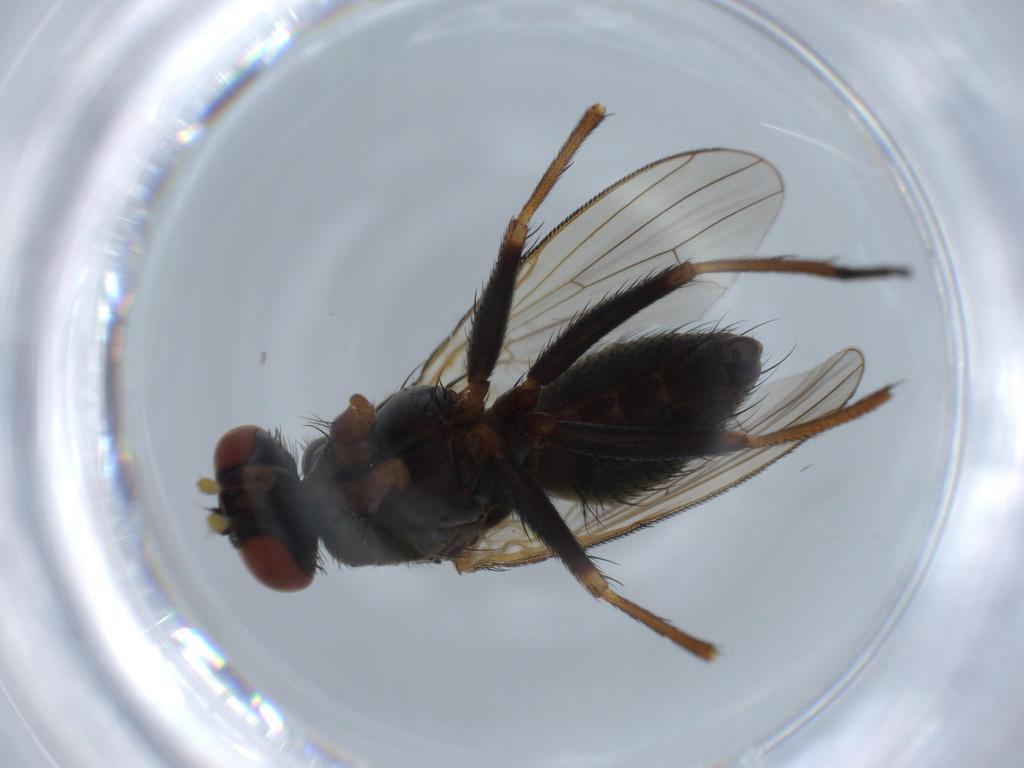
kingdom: Animalia
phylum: Arthropoda
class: Insecta
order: Diptera
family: Muscidae
